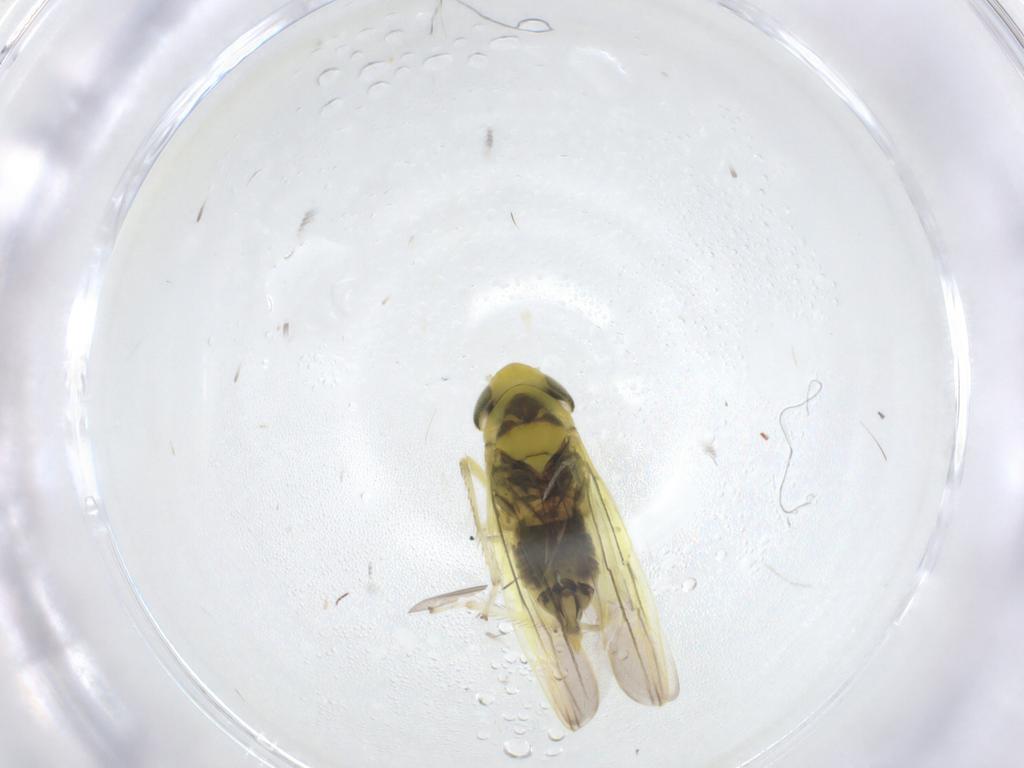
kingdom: Animalia
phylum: Arthropoda
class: Insecta
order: Hemiptera
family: Cicadellidae
